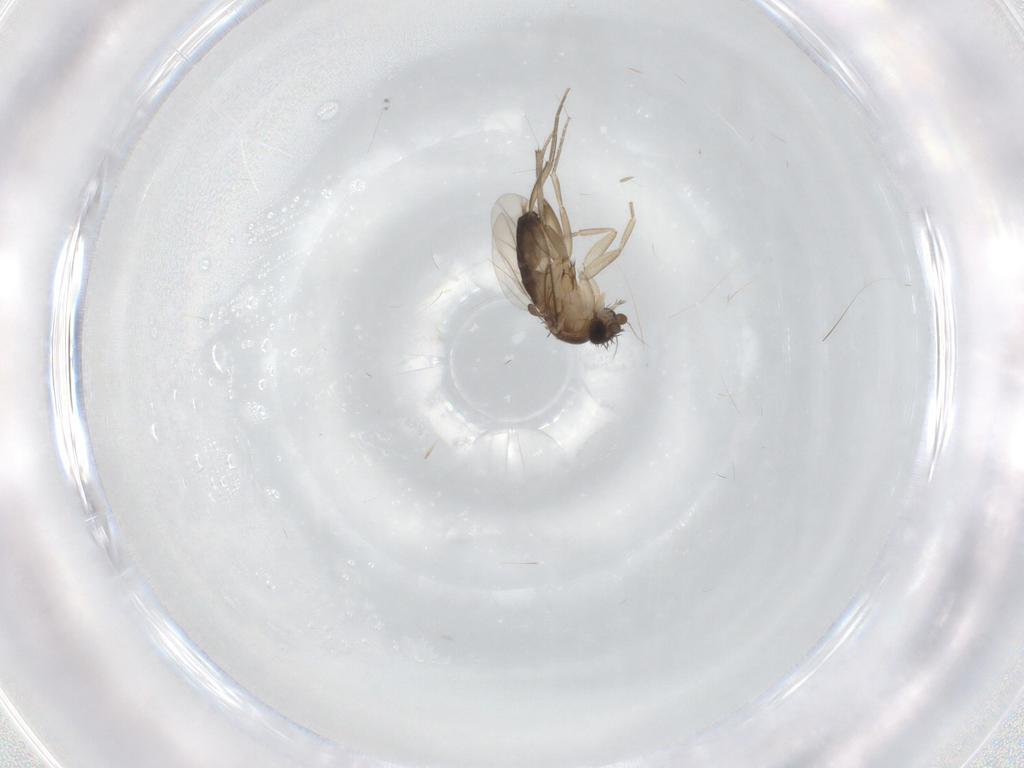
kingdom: Animalia
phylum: Arthropoda
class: Insecta
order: Diptera
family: Phoridae
